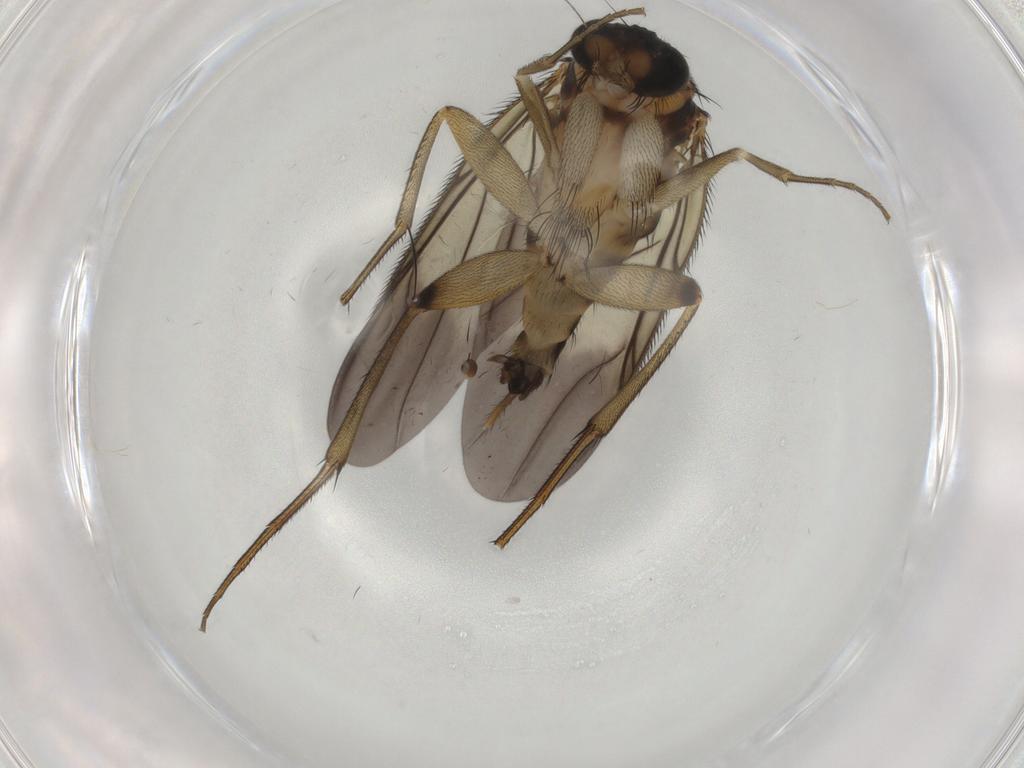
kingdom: Animalia
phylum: Arthropoda
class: Insecta
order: Diptera
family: Phoridae
